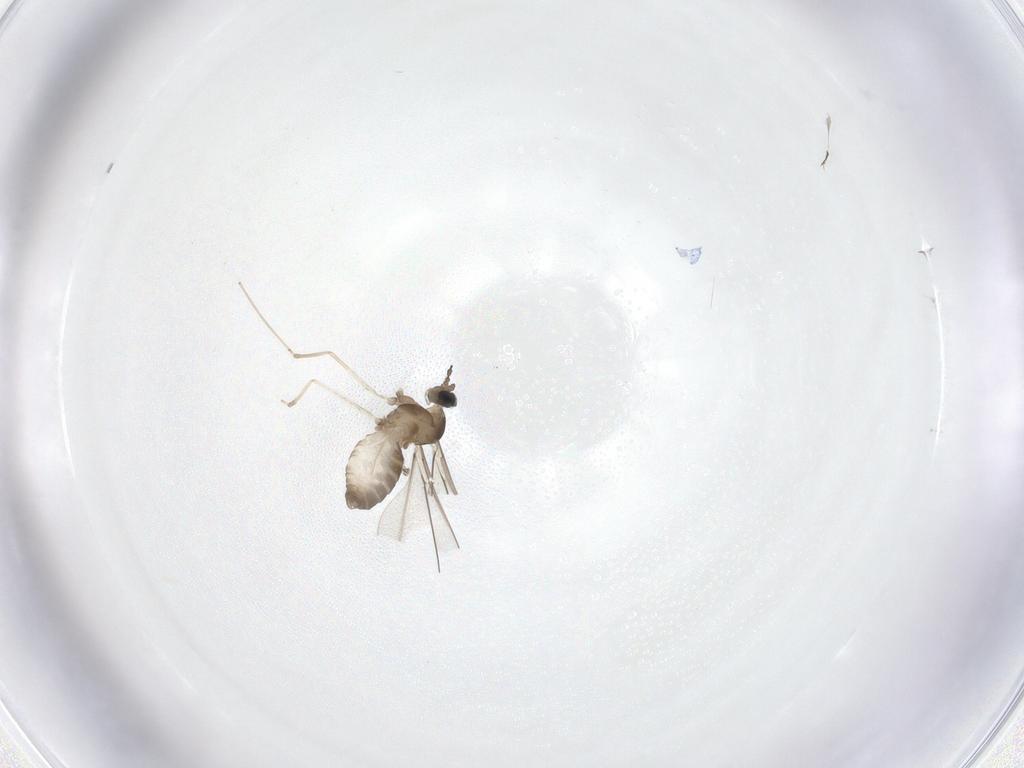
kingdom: Animalia
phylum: Arthropoda
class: Insecta
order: Diptera
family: Cecidomyiidae
